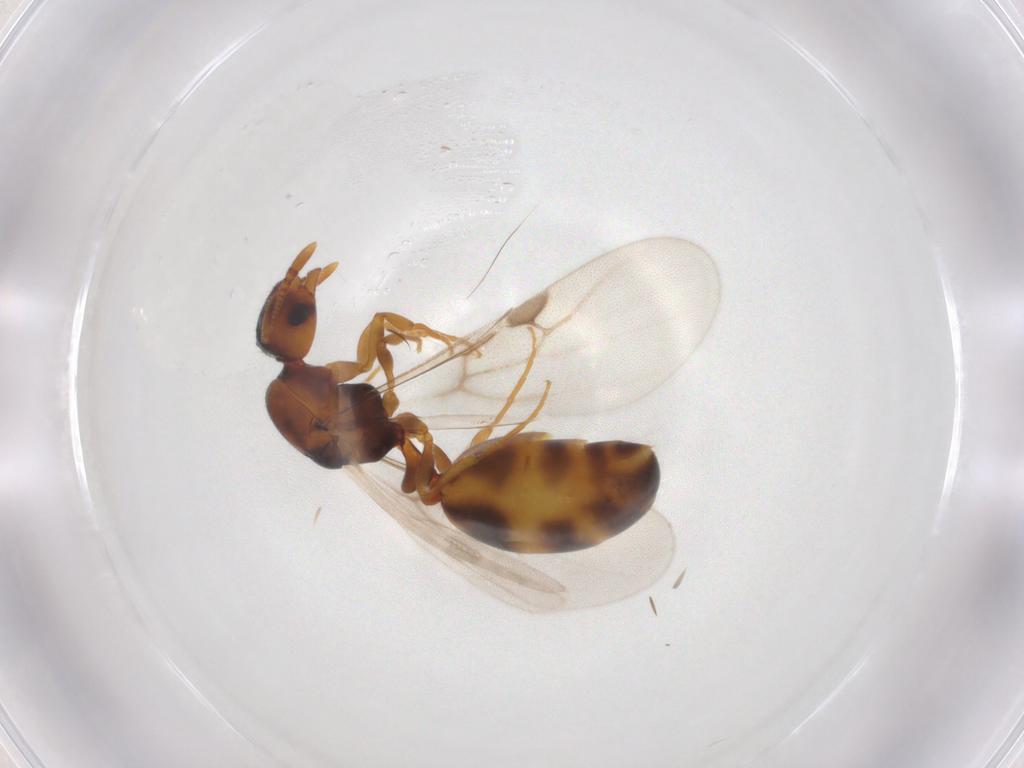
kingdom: Animalia
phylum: Arthropoda
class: Insecta
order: Hymenoptera
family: Formicidae
